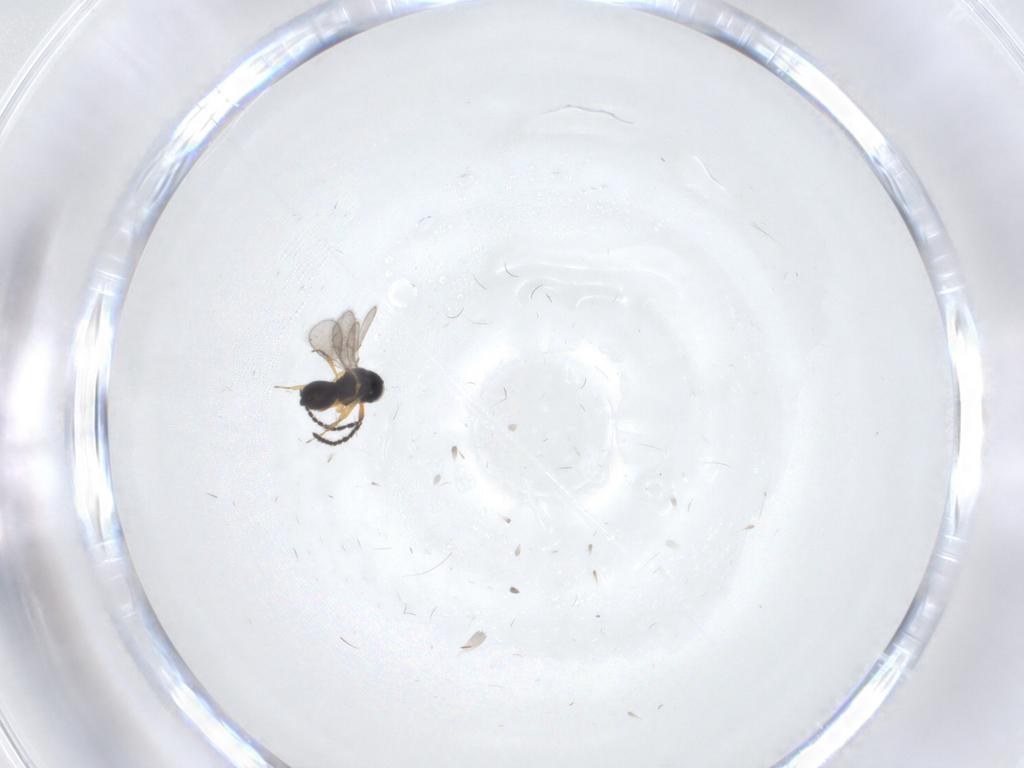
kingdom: Animalia
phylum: Arthropoda
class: Insecta
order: Hymenoptera
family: Scelionidae
